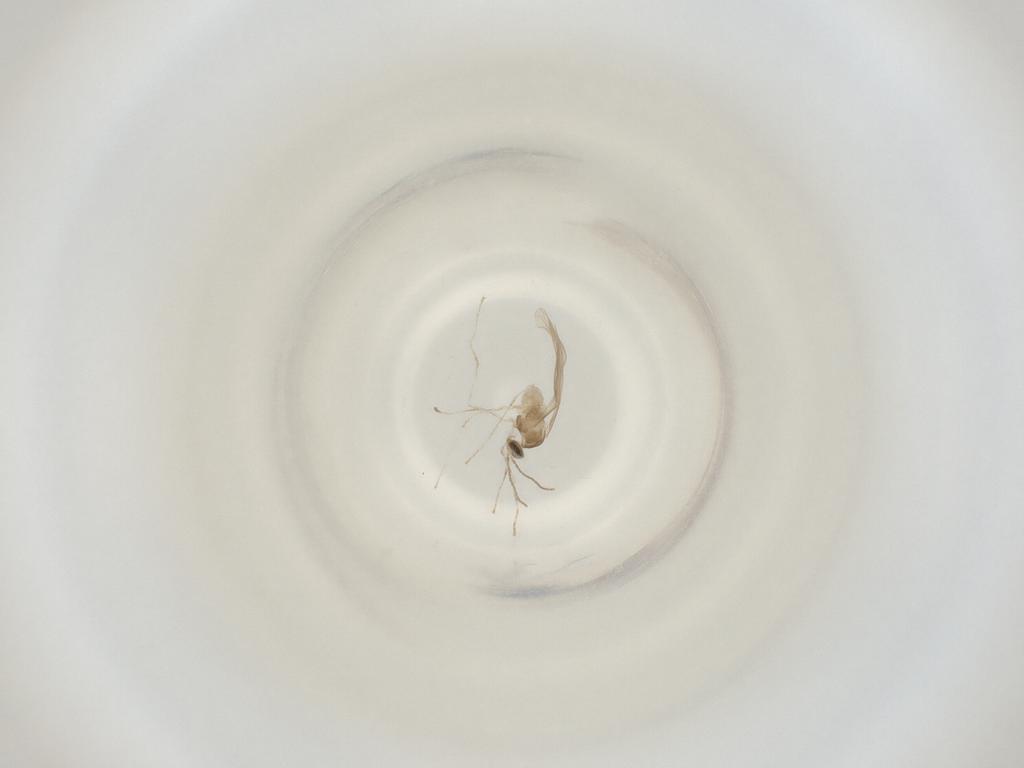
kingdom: Animalia
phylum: Arthropoda
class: Insecta
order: Diptera
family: Cecidomyiidae
